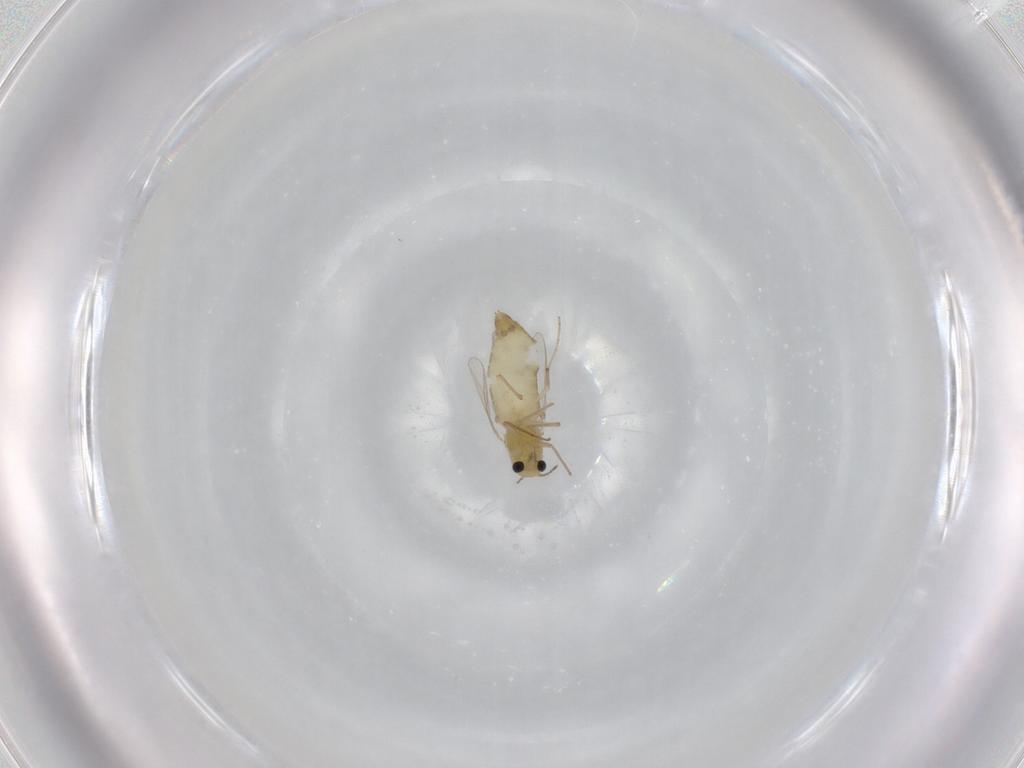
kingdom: Animalia
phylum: Arthropoda
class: Insecta
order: Diptera
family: Chironomidae
